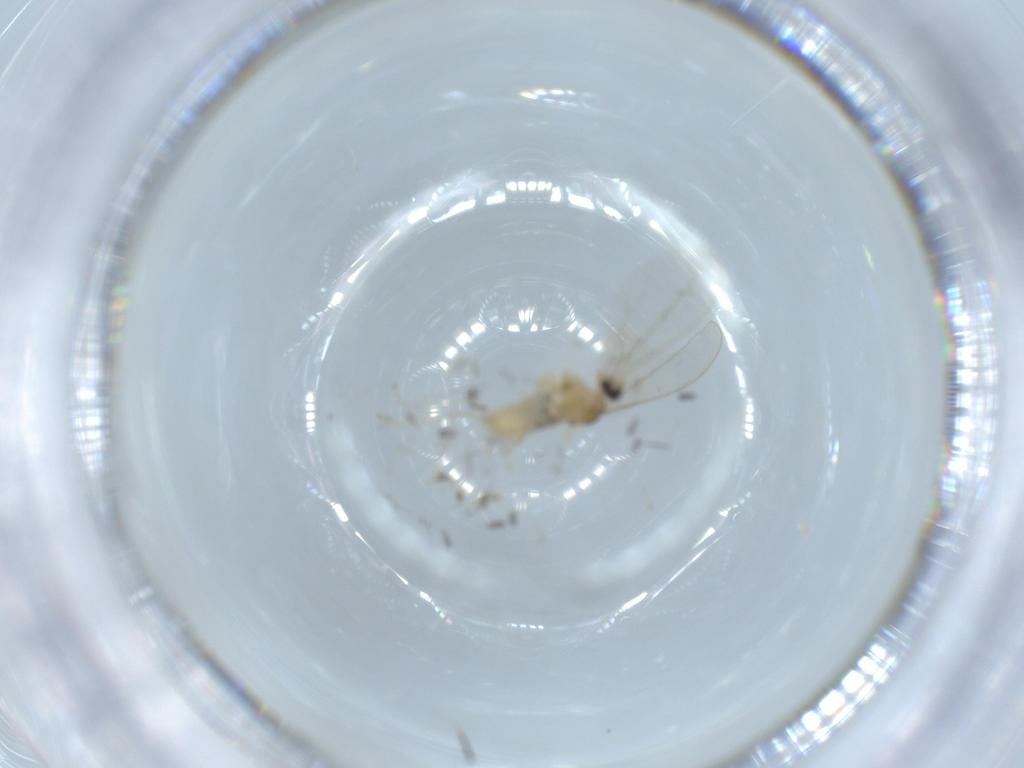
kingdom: Animalia
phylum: Arthropoda
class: Insecta
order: Diptera
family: Cecidomyiidae
